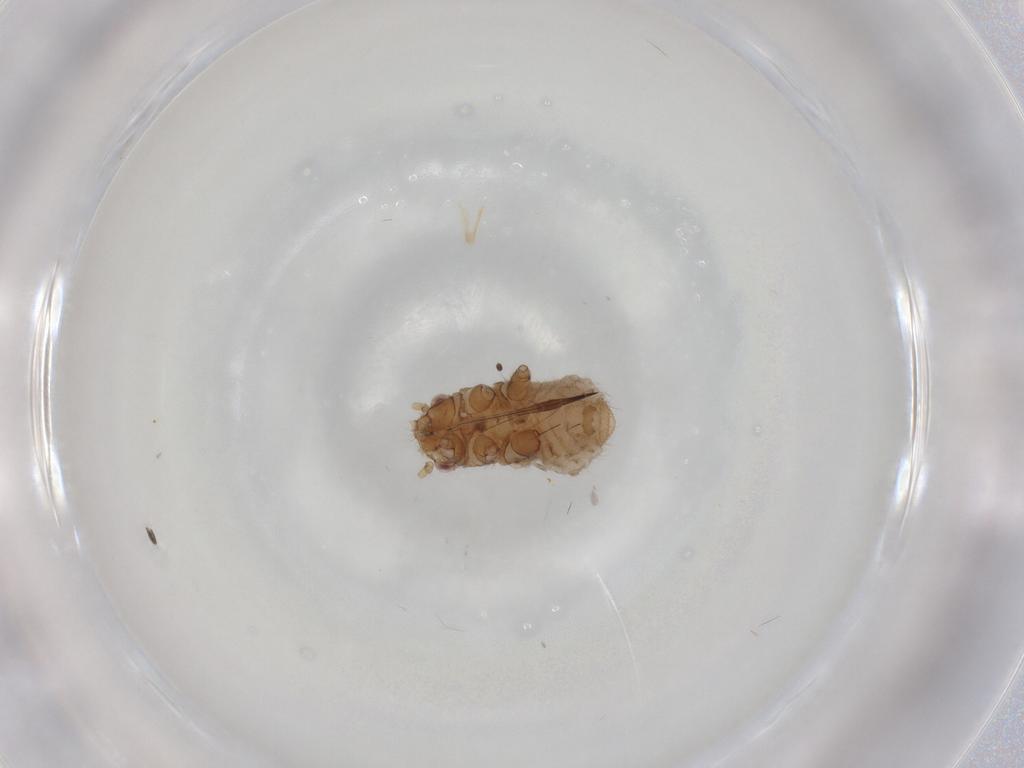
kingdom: Animalia
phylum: Arthropoda
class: Insecta
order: Hemiptera
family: Aphididae
